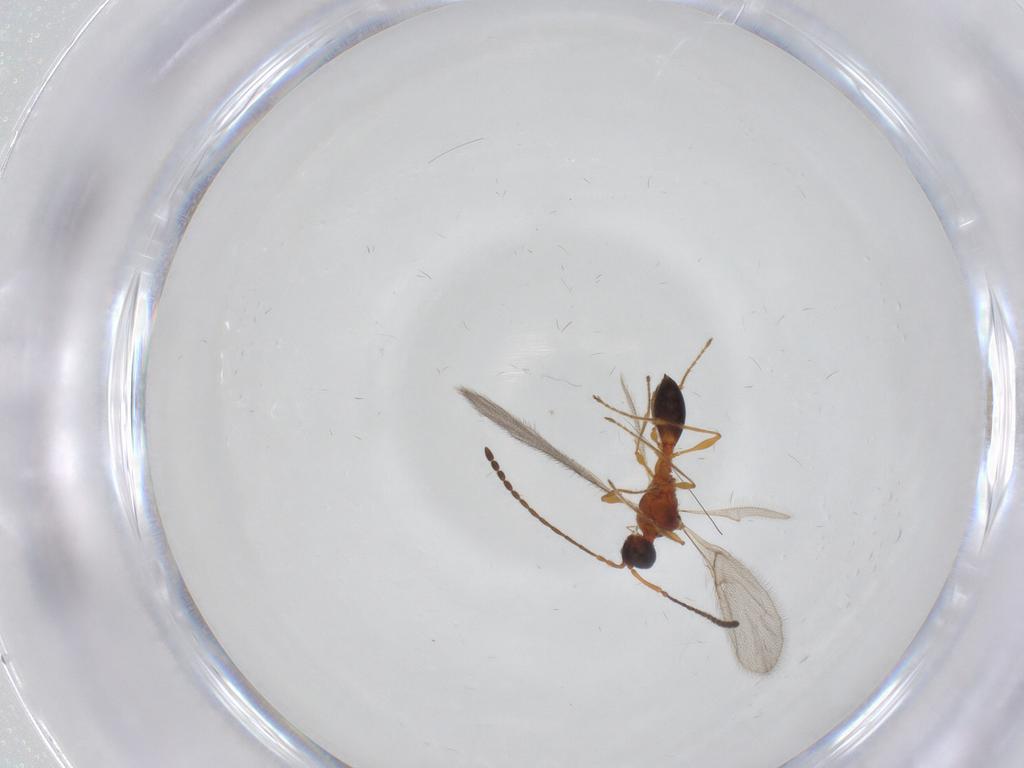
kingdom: Animalia
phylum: Arthropoda
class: Insecta
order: Hymenoptera
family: Diapriidae
